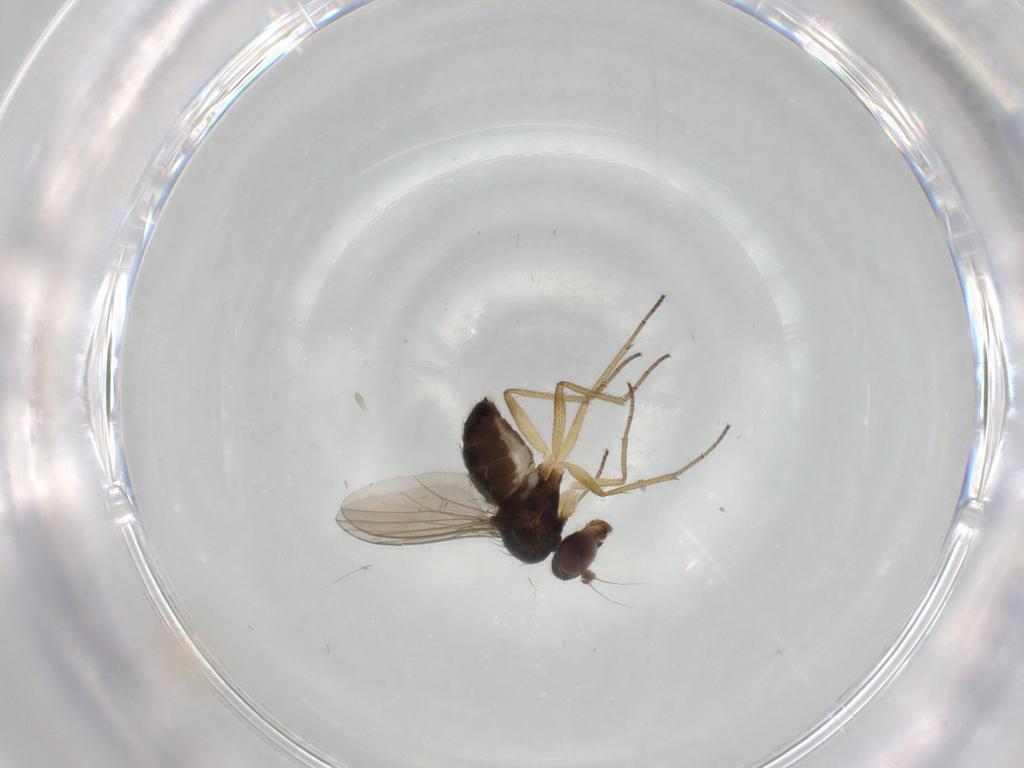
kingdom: Animalia
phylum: Arthropoda
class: Insecta
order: Diptera
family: Dolichopodidae
